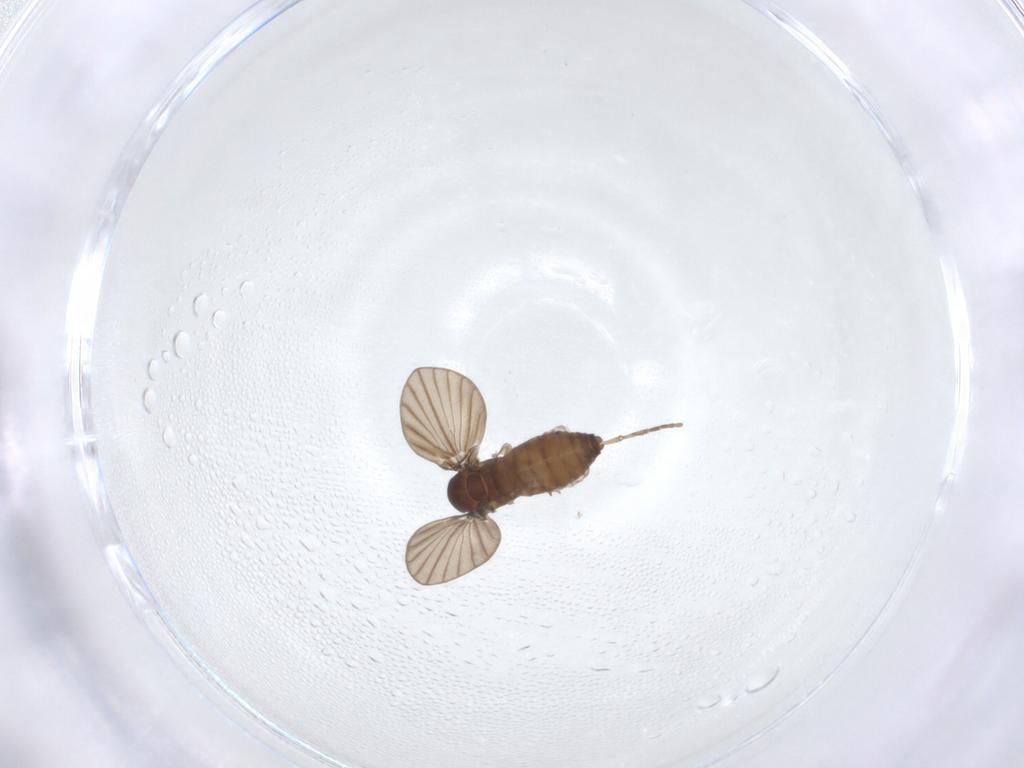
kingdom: Animalia
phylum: Arthropoda
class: Insecta
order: Diptera
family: Psychodidae
